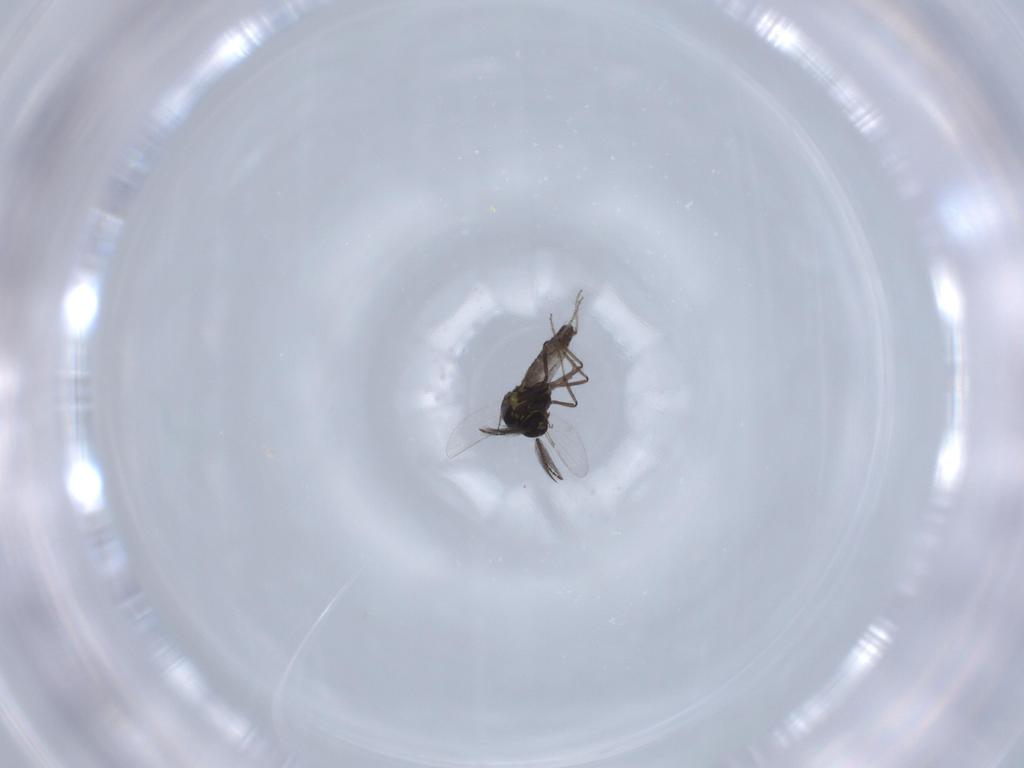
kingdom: Animalia
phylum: Arthropoda
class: Insecta
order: Diptera
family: Ceratopogonidae
